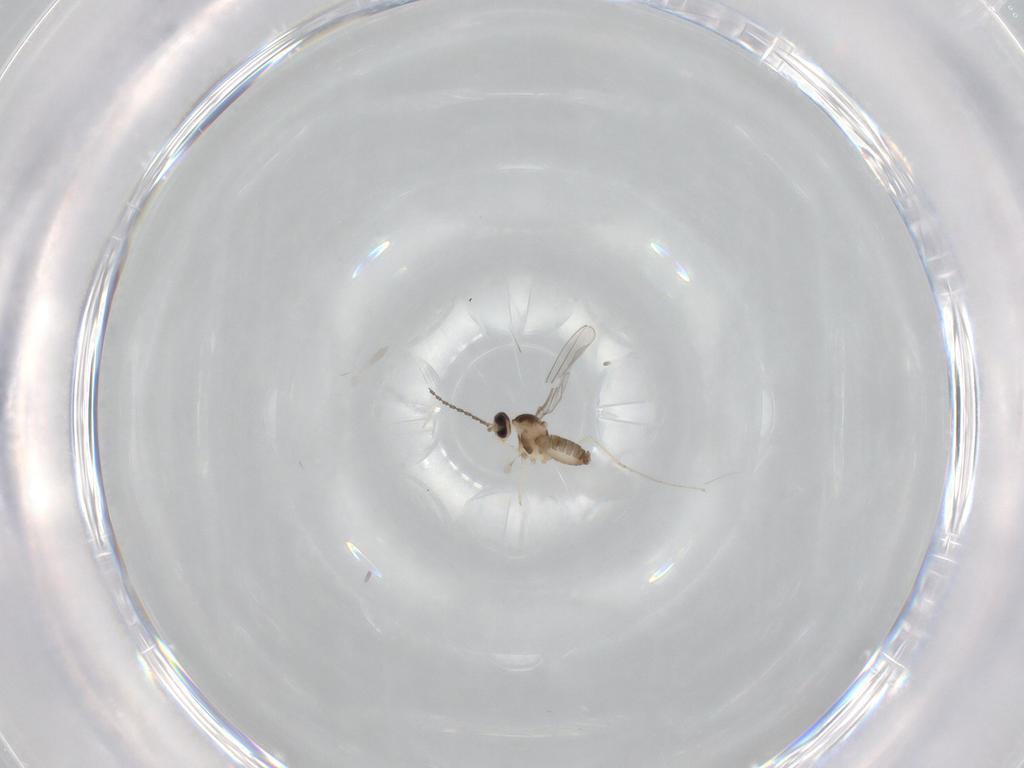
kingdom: Animalia
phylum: Arthropoda
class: Insecta
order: Diptera
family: Cecidomyiidae
